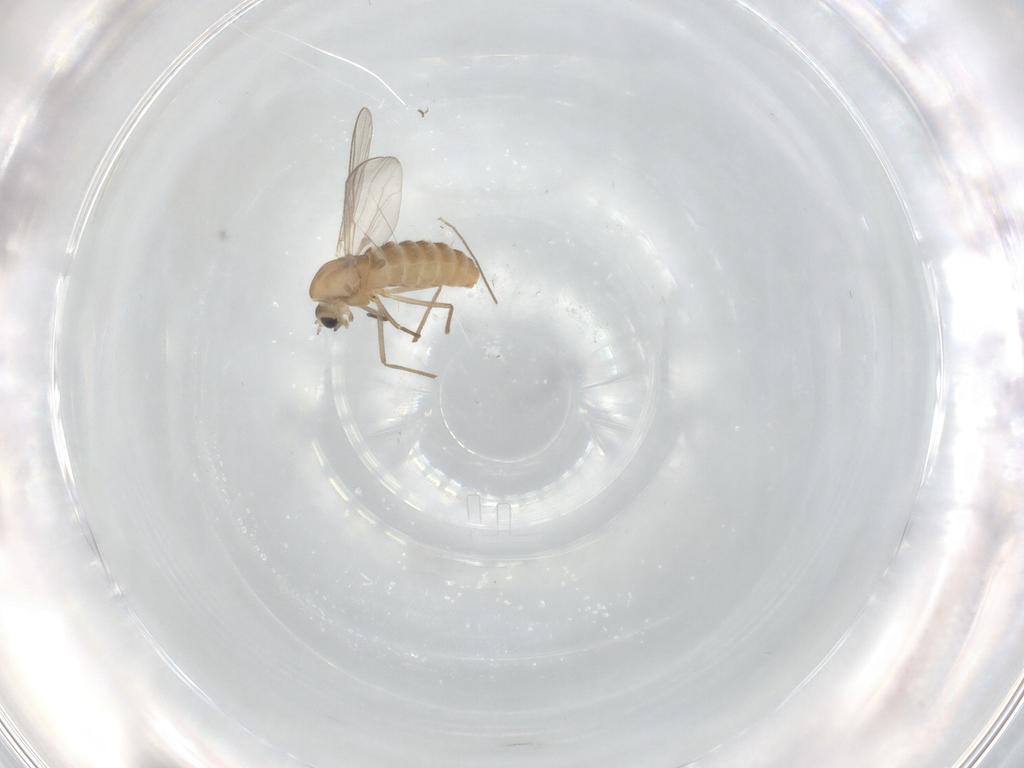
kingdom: Animalia
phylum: Arthropoda
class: Insecta
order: Diptera
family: Chironomidae
